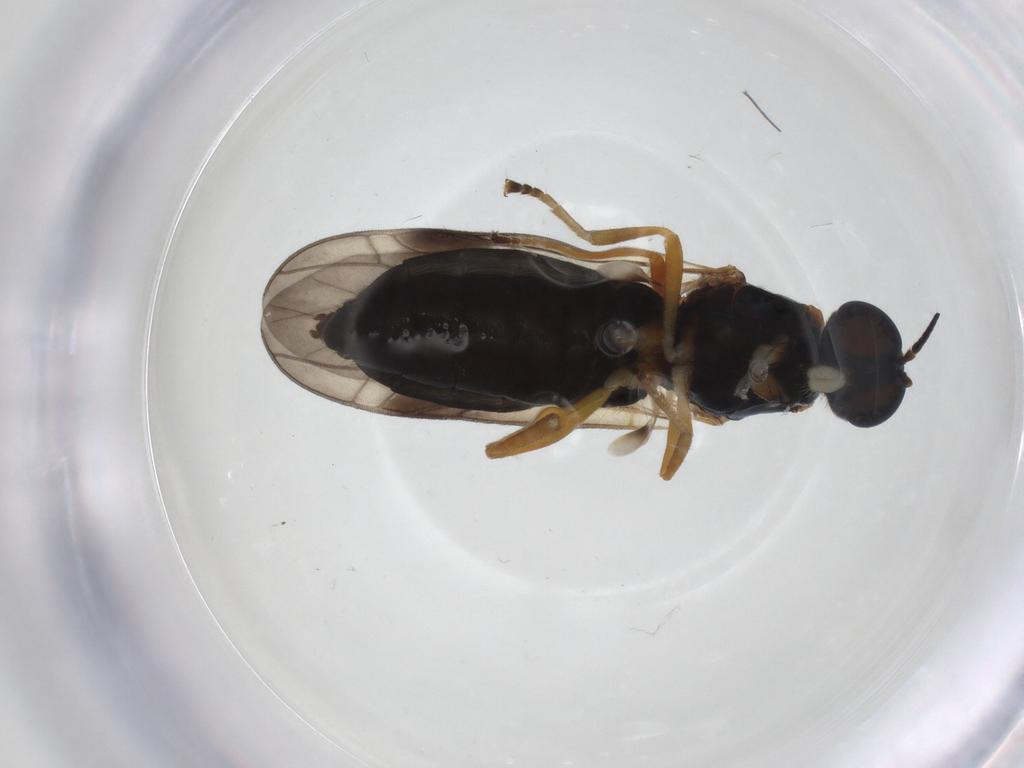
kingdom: Animalia
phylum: Arthropoda
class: Insecta
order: Diptera
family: Stratiomyidae
